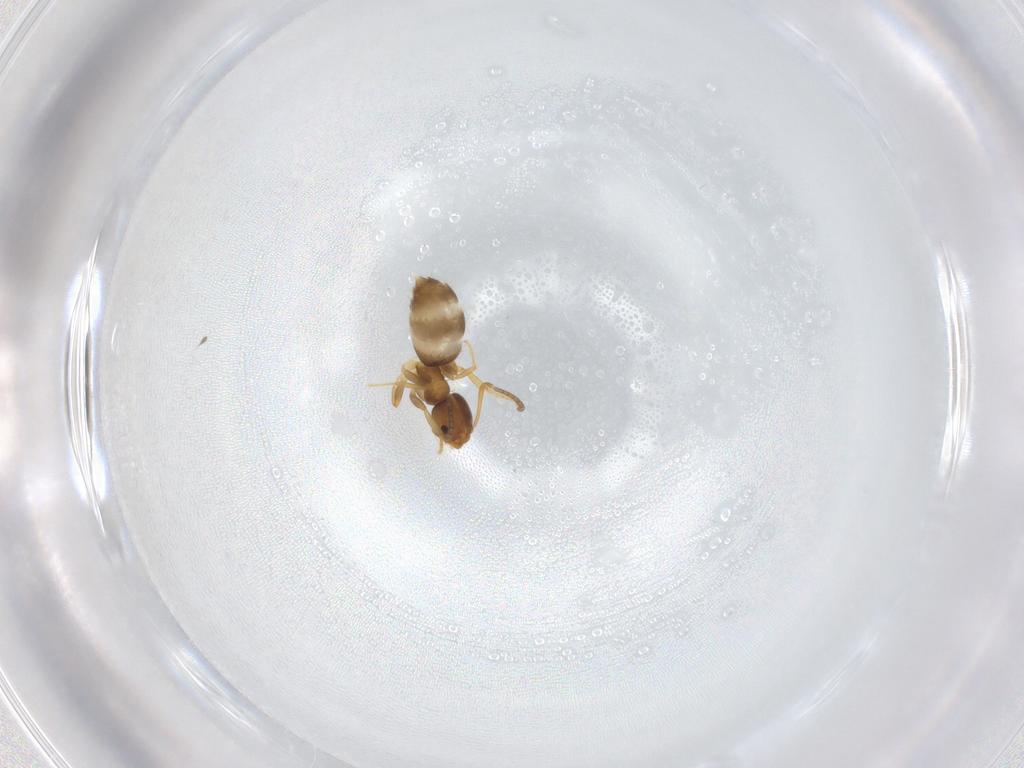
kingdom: Animalia
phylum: Arthropoda
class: Insecta
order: Hymenoptera
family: Formicidae
